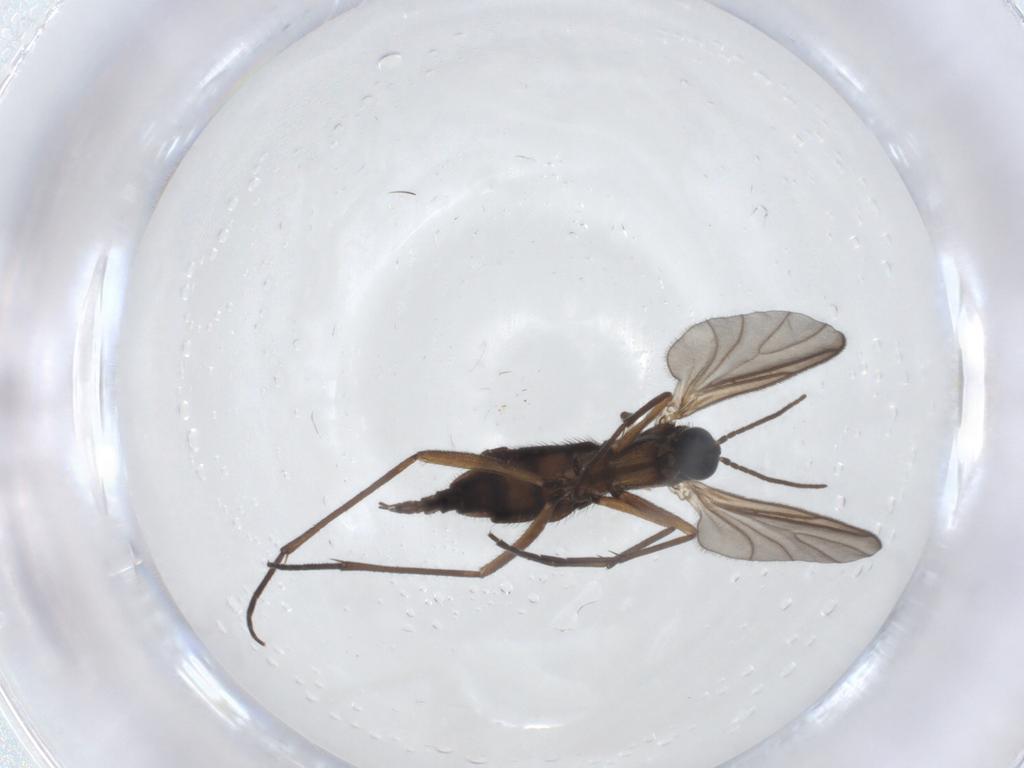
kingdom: Animalia
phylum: Arthropoda
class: Insecta
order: Diptera
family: Sciaridae
